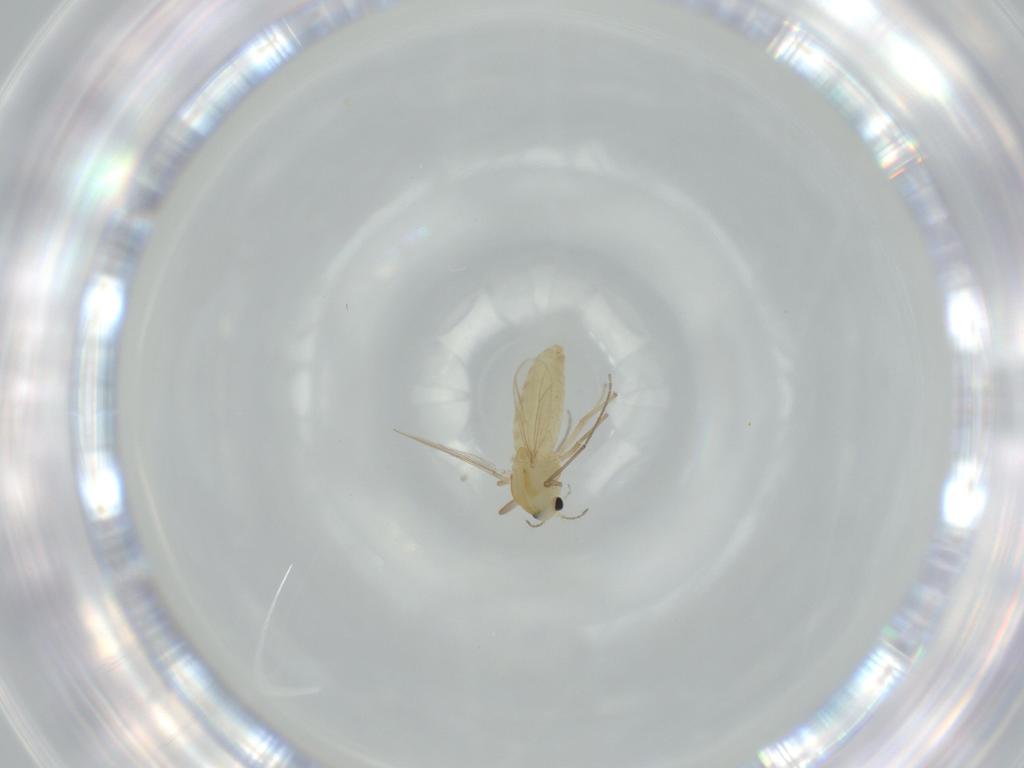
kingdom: Animalia
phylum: Arthropoda
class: Insecta
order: Diptera
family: Chironomidae
